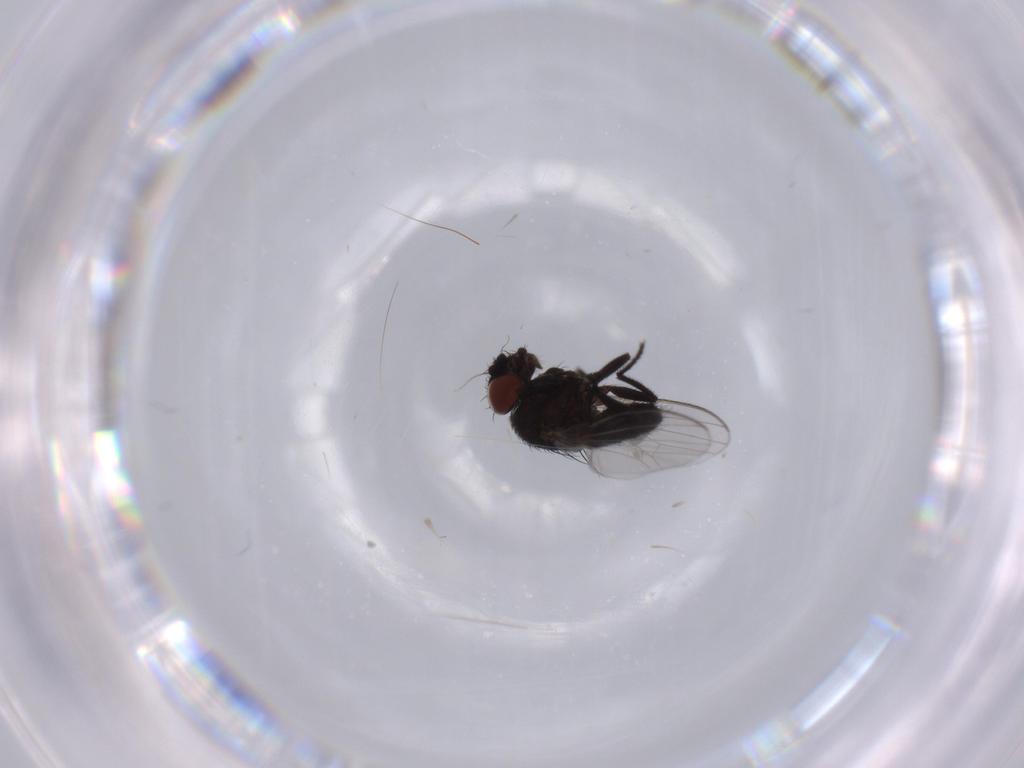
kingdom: Animalia
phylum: Arthropoda
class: Insecta
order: Diptera
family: Milichiidae
